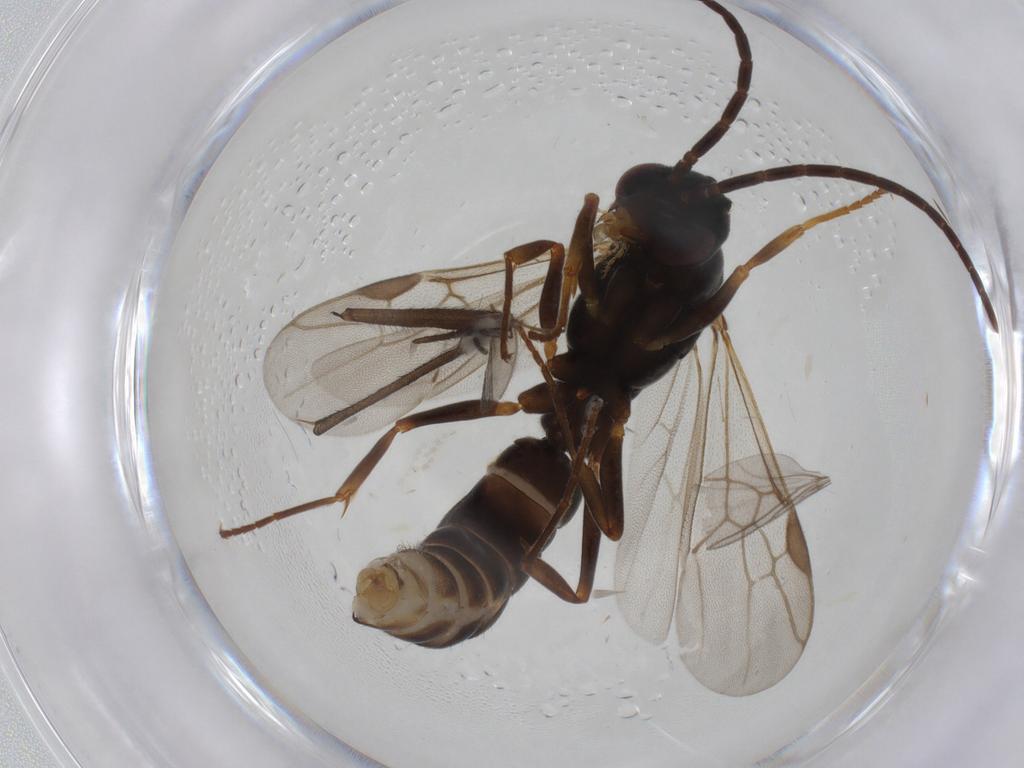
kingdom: Animalia
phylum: Arthropoda
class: Insecta
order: Hymenoptera
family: Formicidae
